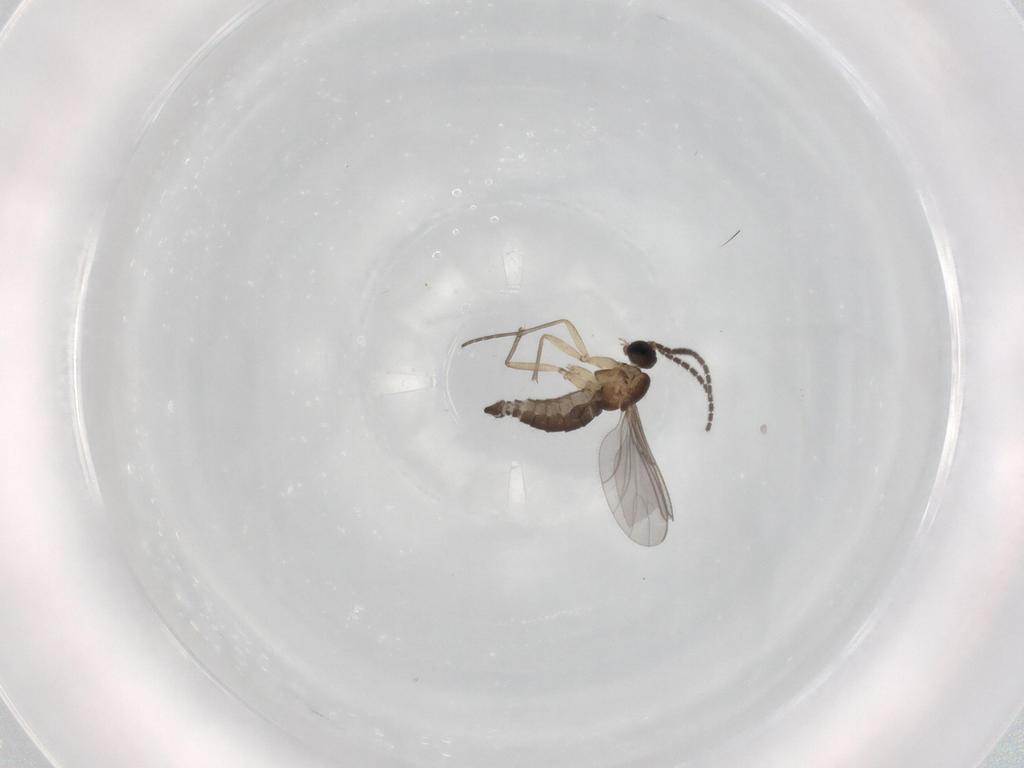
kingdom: Animalia
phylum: Arthropoda
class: Insecta
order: Diptera
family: Sciaridae
